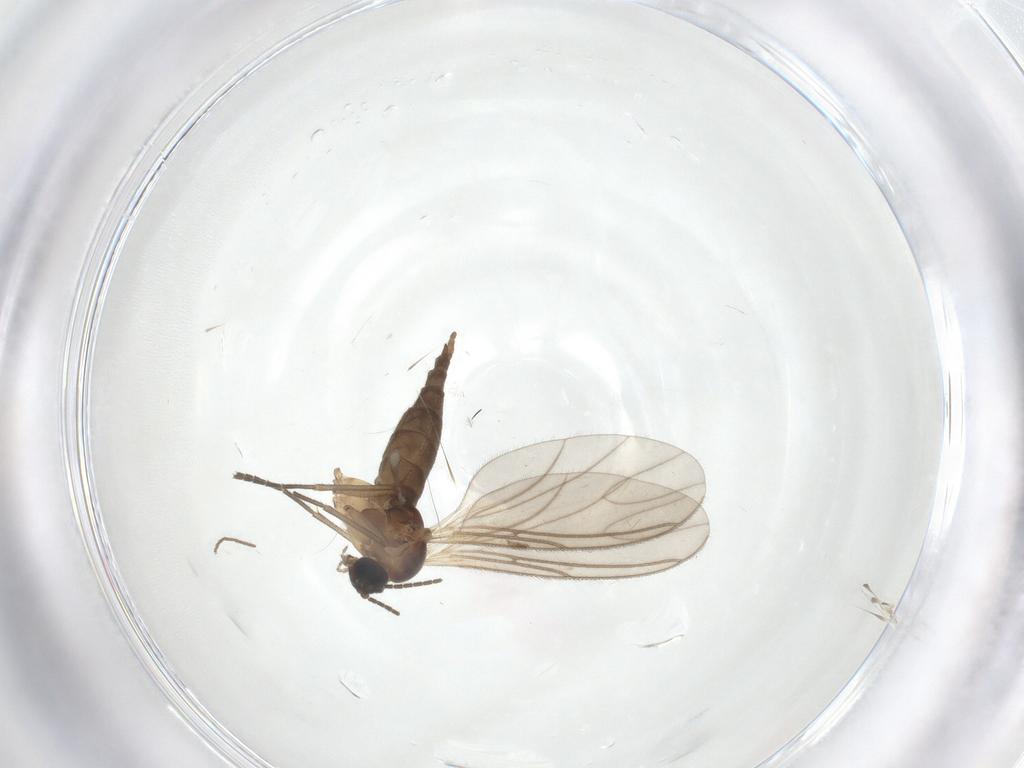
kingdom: Animalia
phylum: Arthropoda
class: Insecta
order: Diptera
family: Sciaridae
